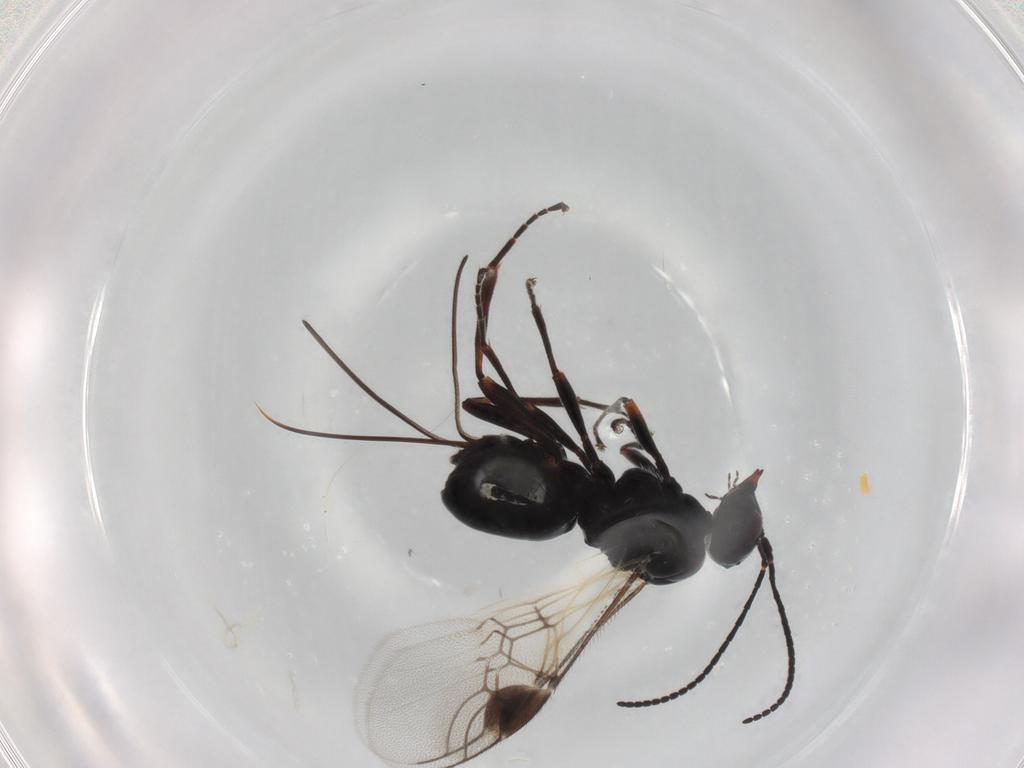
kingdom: Animalia
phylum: Arthropoda
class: Insecta
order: Hymenoptera
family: Braconidae
